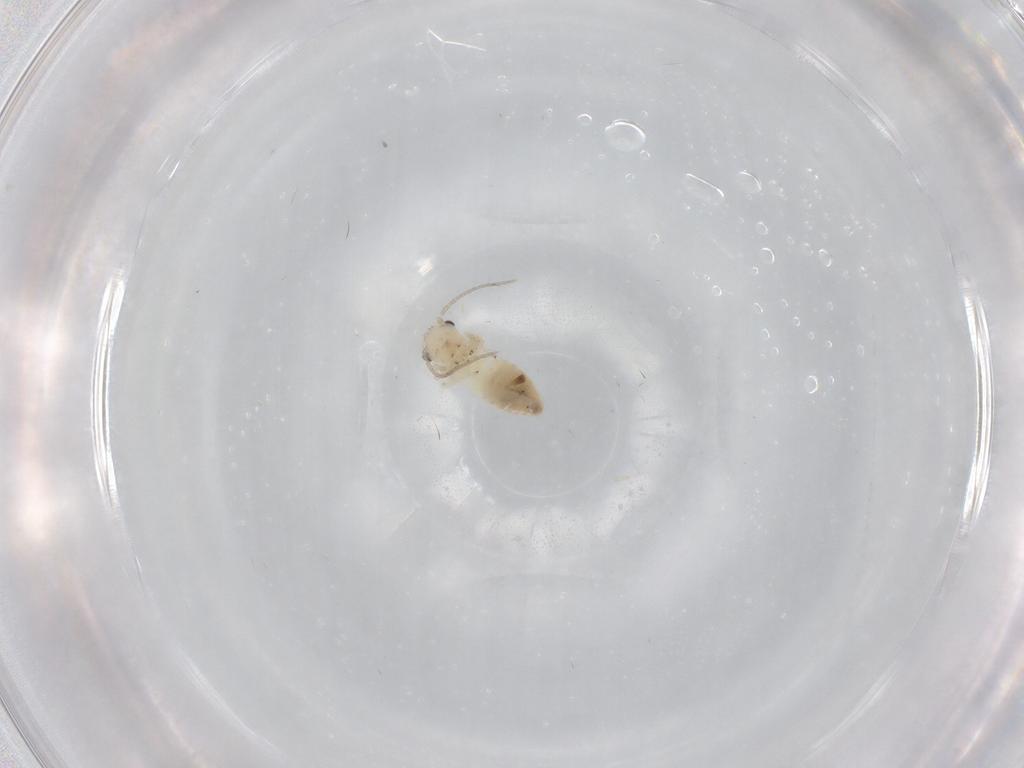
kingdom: Animalia
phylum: Arthropoda
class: Insecta
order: Psocodea
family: Caeciliusidae
